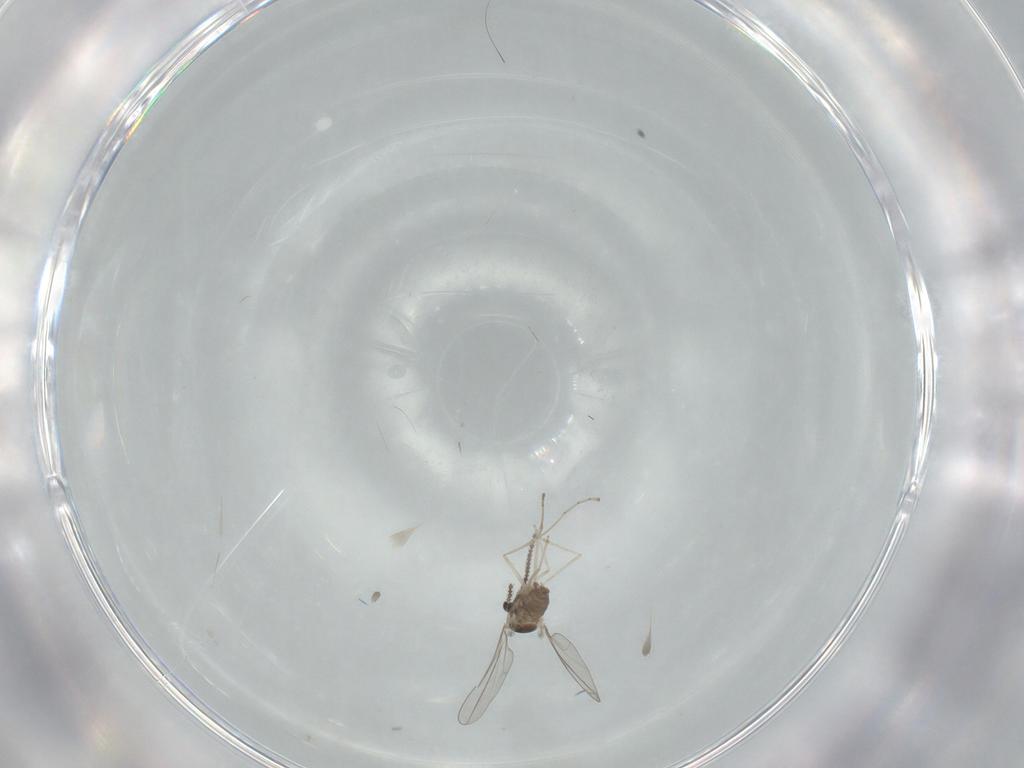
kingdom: Animalia
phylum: Arthropoda
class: Insecta
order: Diptera
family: Cecidomyiidae
